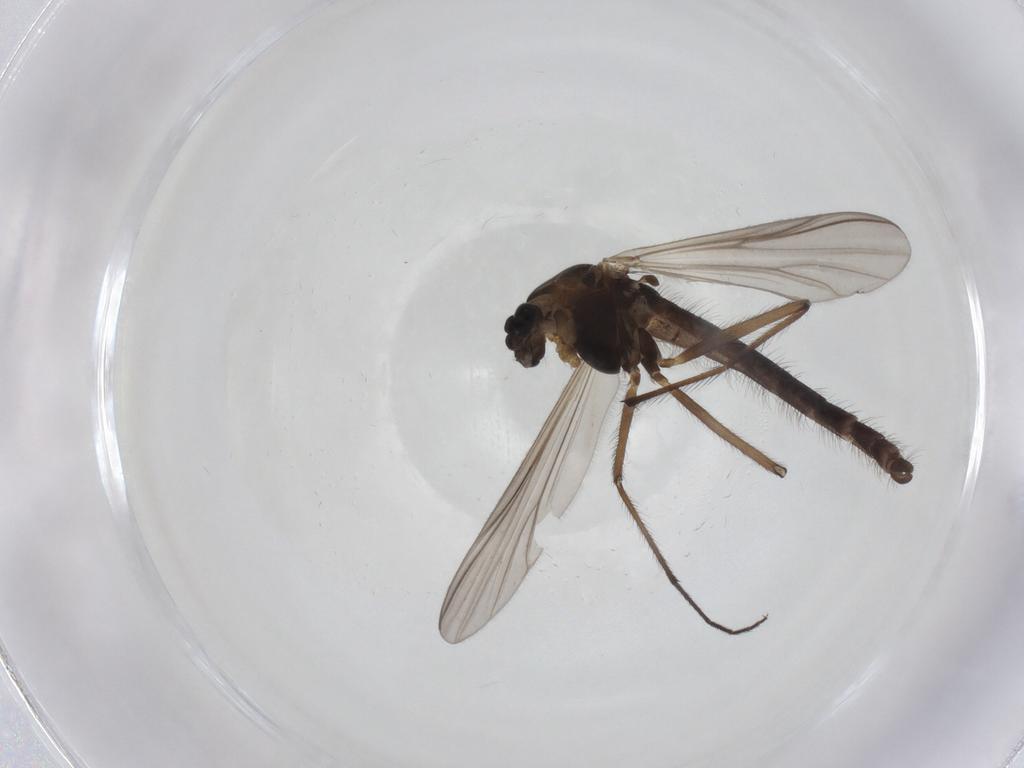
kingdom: Animalia
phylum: Arthropoda
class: Insecta
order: Diptera
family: Chironomidae
